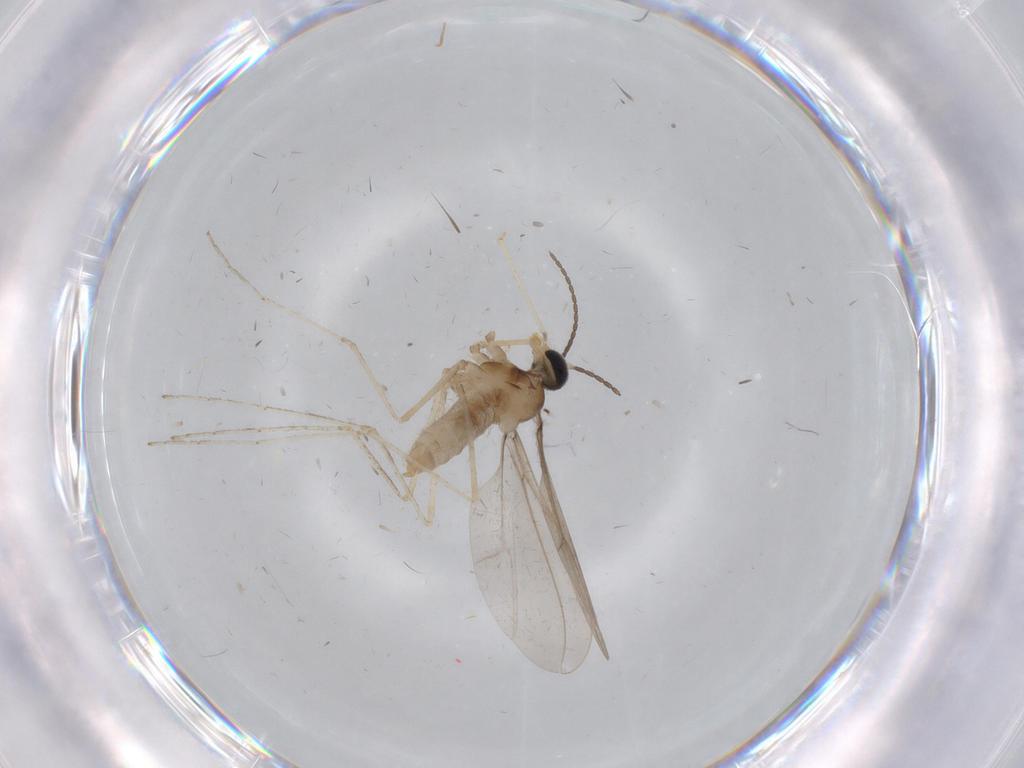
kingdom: Animalia
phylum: Arthropoda
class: Insecta
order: Diptera
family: Cecidomyiidae
